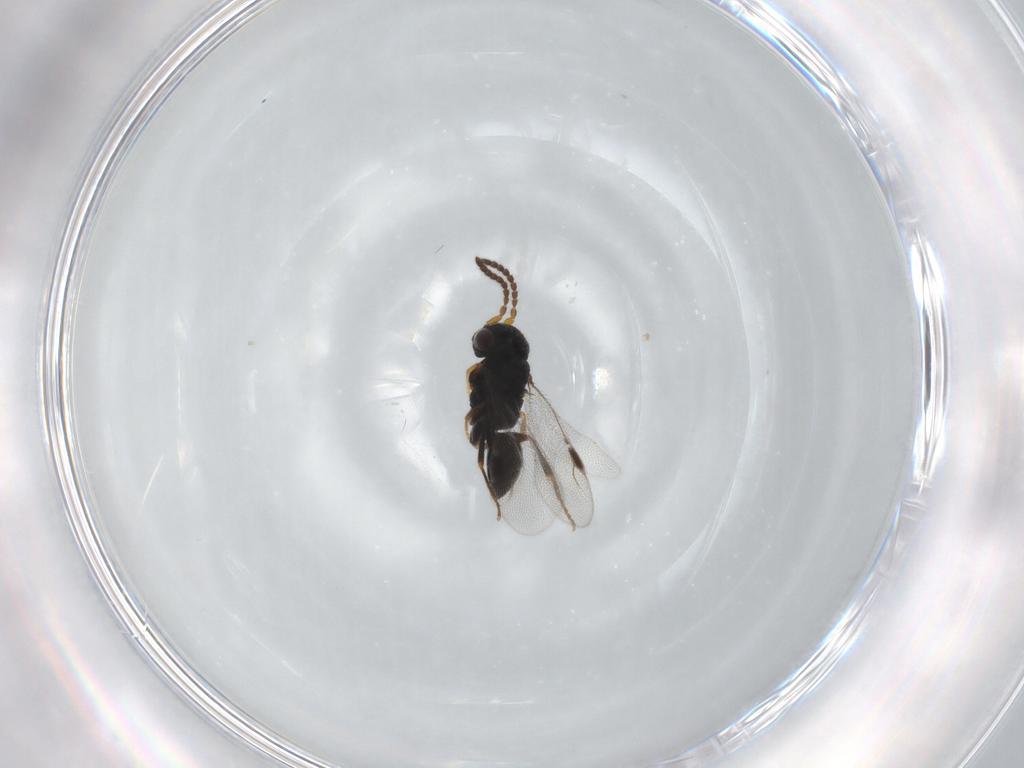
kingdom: Animalia
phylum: Arthropoda
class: Insecta
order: Hymenoptera
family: Dryinidae
